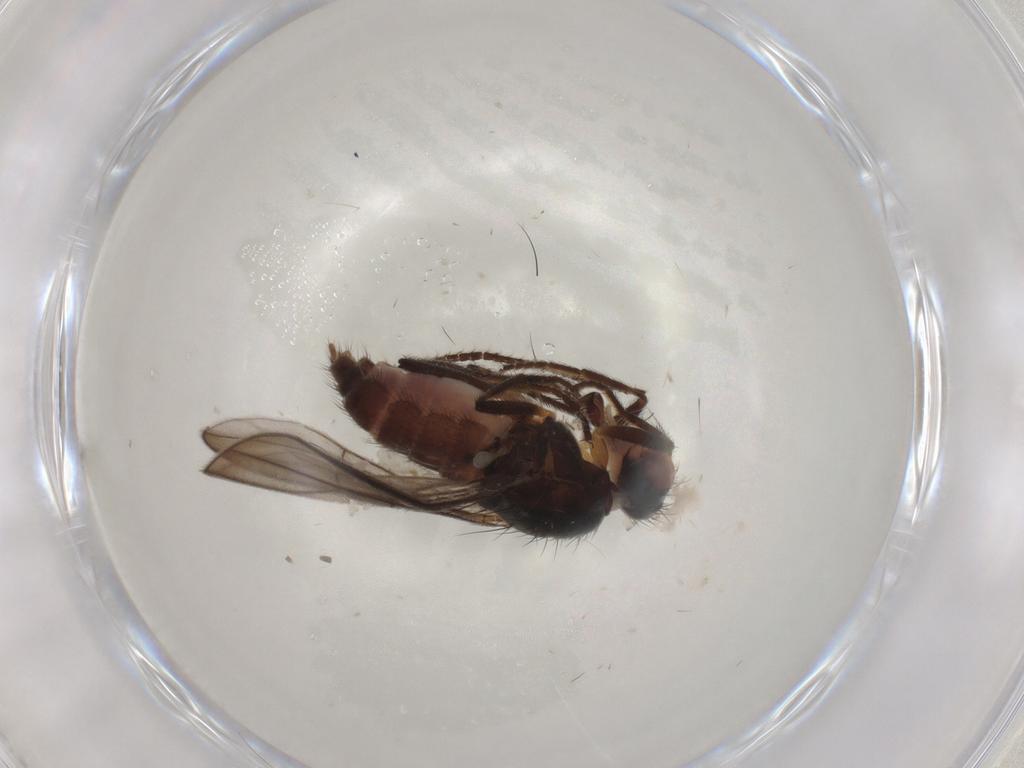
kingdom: Animalia
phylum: Arthropoda
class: Insecta
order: Diptera
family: Chloropidae
